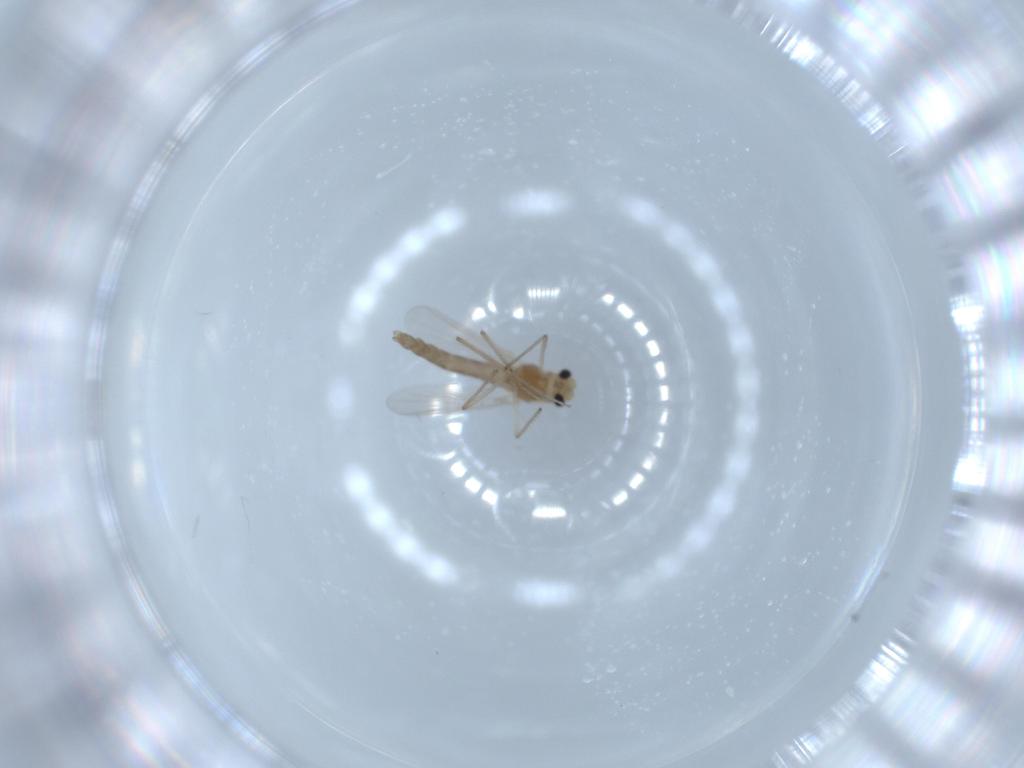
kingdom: Animalia
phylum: Arthropoda
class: Insecta
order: Diptera
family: Chironomidae
